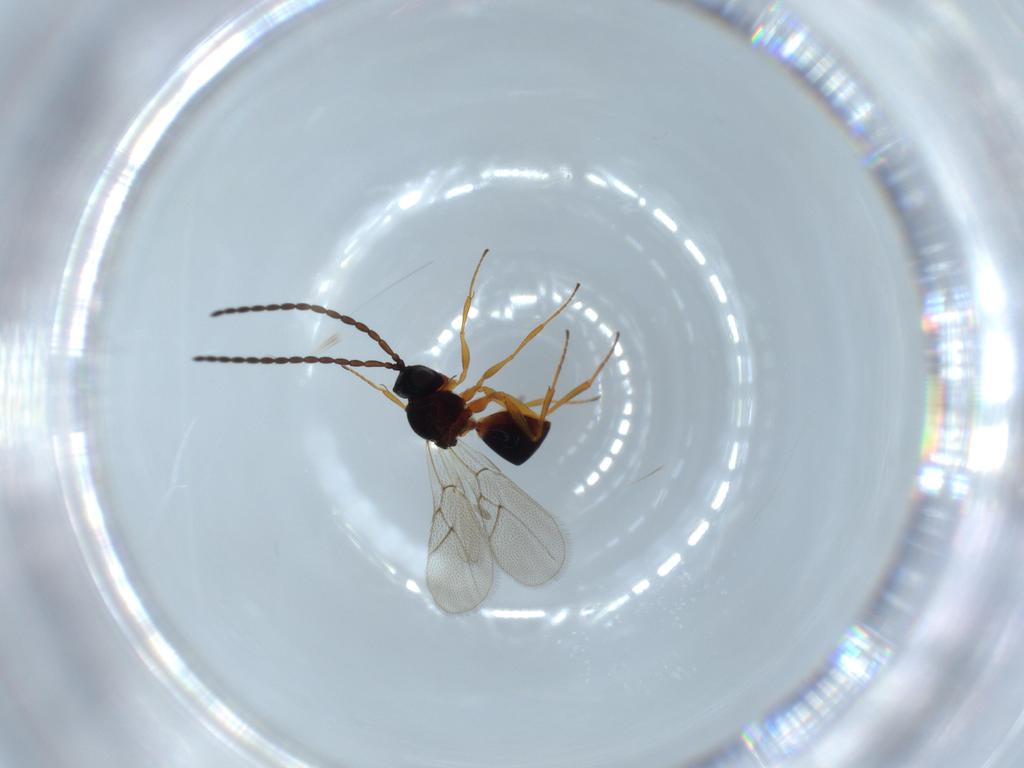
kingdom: Animalia
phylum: Arthropoda
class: Insecta
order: Hymenoptera
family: Figitidae
